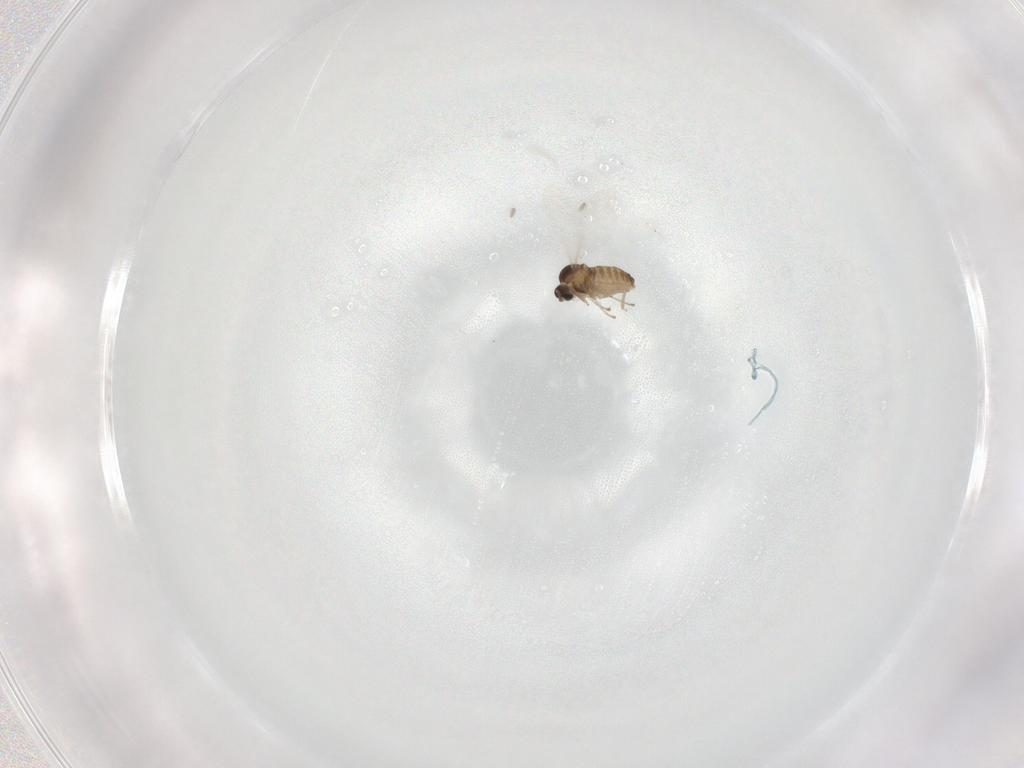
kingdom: Animalia
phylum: Arthropoda
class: Insecta
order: Diptera
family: Cecidomyiidae
